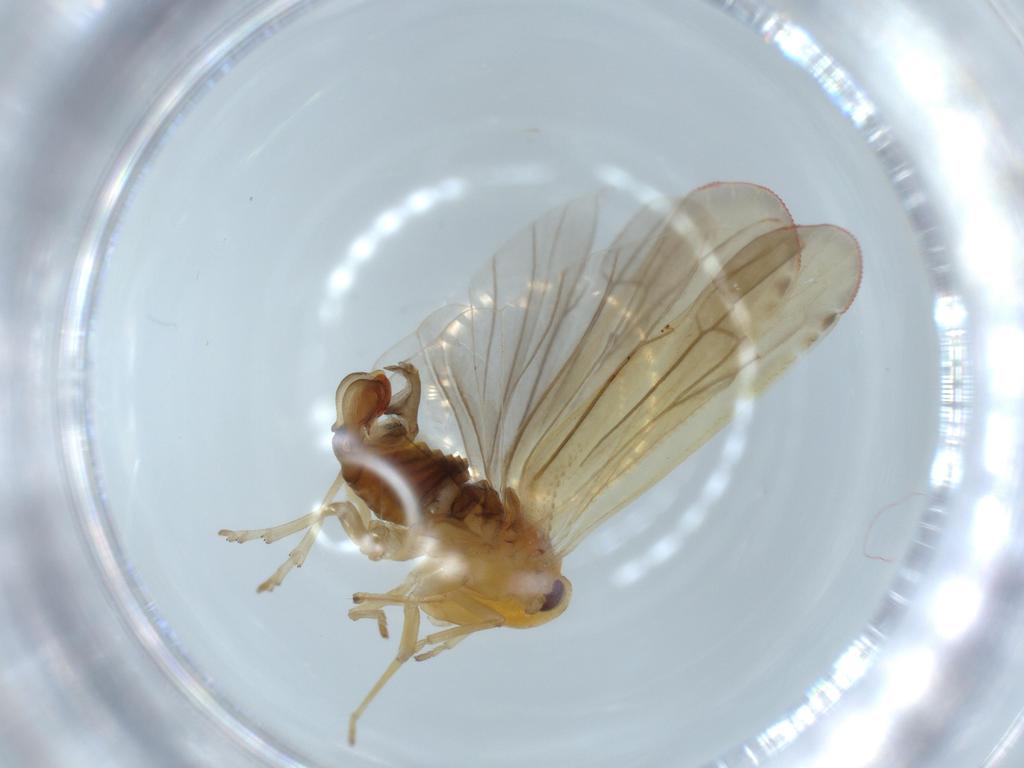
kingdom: Animalia
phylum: Arthropoda
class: Insecta
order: Hemiptera
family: Derbidae
